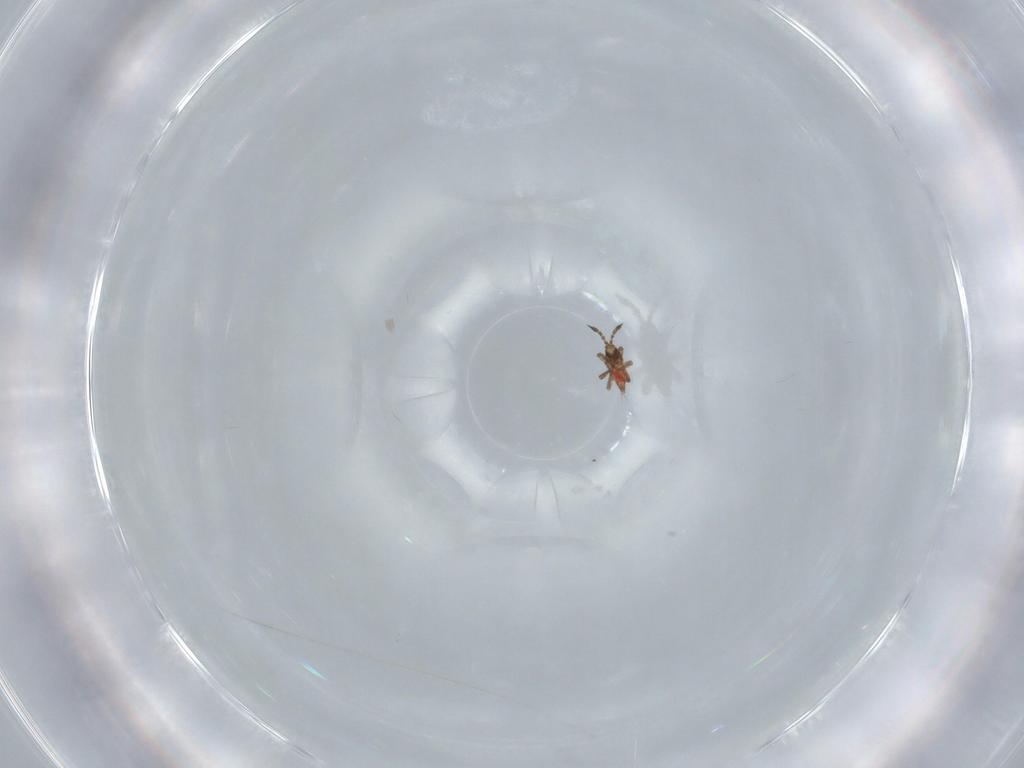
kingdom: Animalia
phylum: Arthropoda
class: Insecta
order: Thysanoptera
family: Phlaeothripidae
